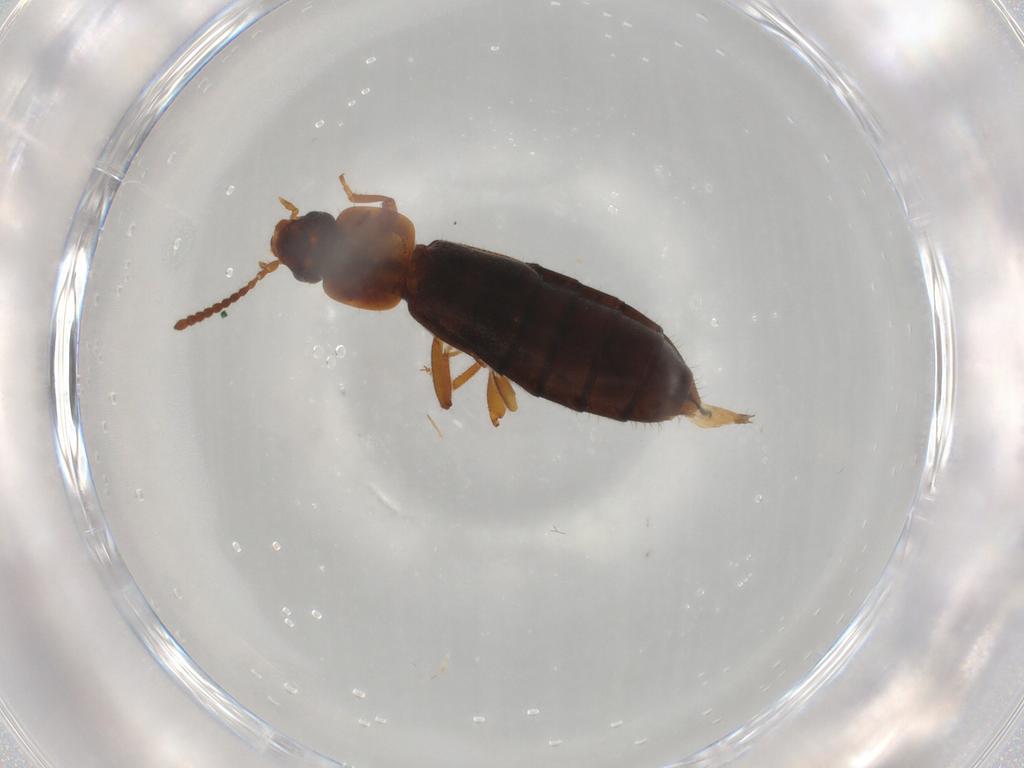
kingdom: Animalia
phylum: Arthropoda
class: Insecta
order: Coleoptera
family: Staphylinidae
